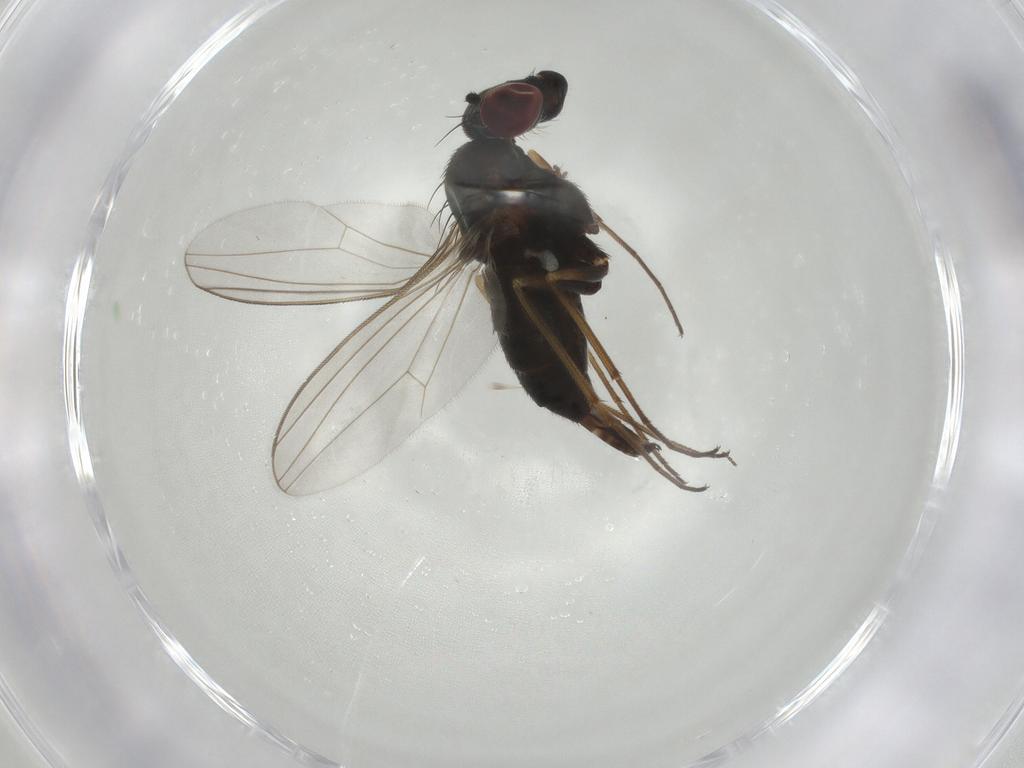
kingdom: Animalia
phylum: Arthropoda
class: Insecta
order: Diptera
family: Dolichopodidae
